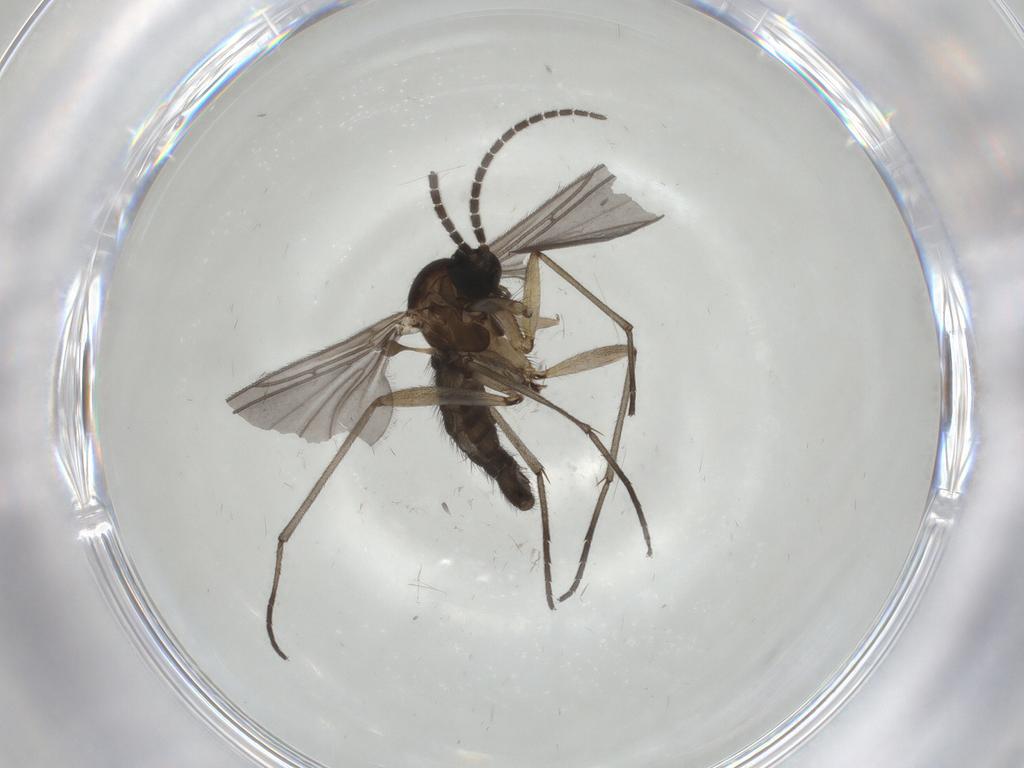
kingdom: Animalia
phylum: Arthropoda
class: Insecta
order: Diptera
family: Sciaridae
